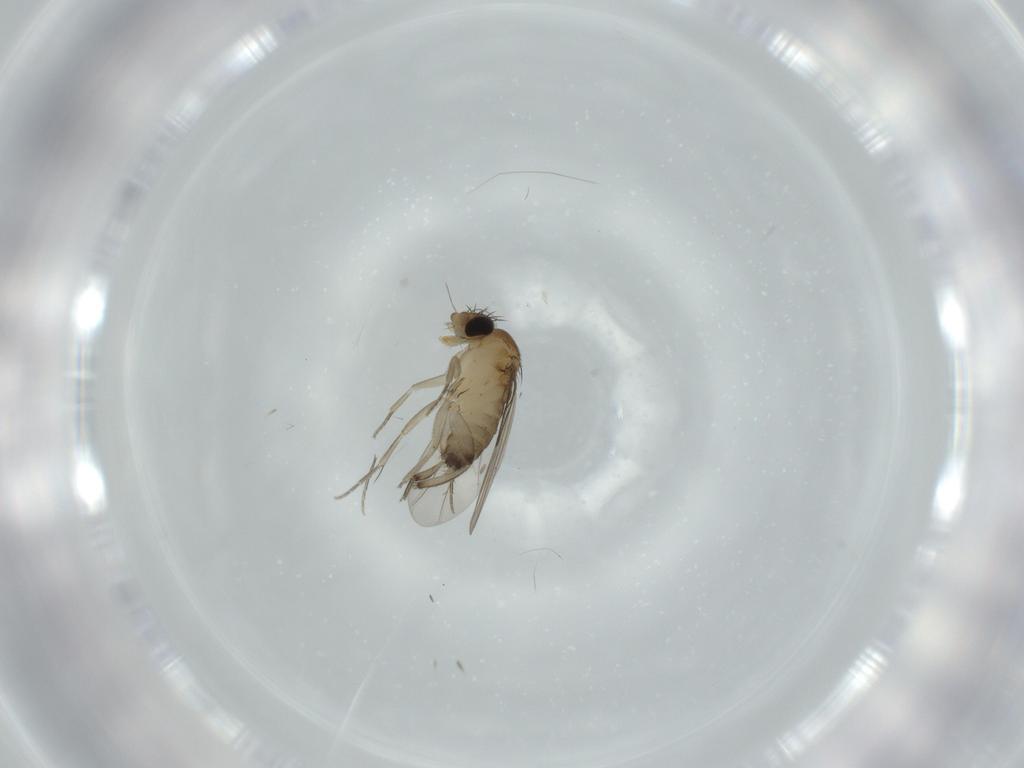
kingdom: Animalia
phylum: Arthropoda
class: Insecta
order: Diptera
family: Phoridae
